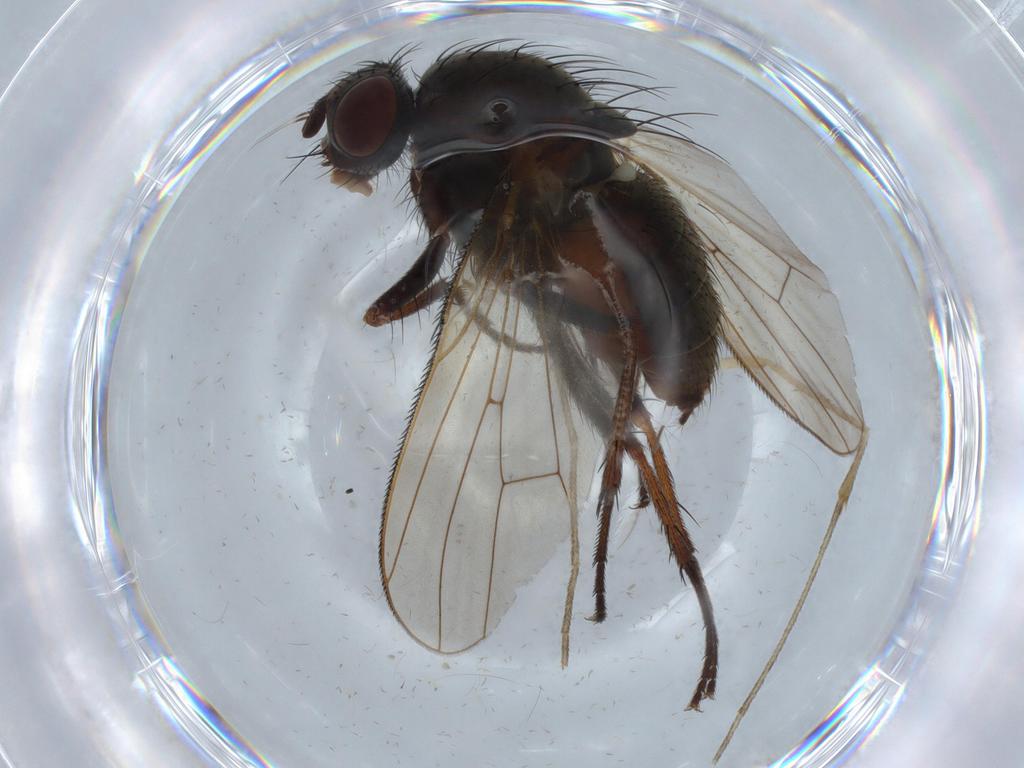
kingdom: Animalia
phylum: Arthropoda
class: Insecta
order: Diptera
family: Anthomyiidae
